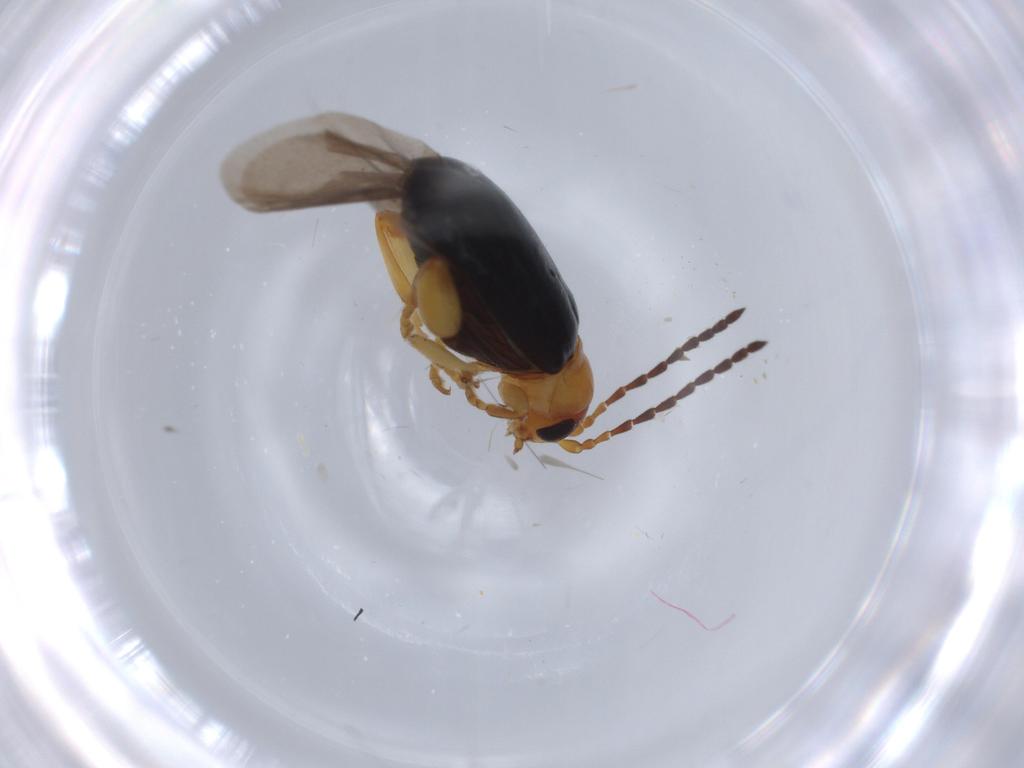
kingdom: Animalia
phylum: Arthropoda
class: Insecta
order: Coleoptera
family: Chrysomelidae
